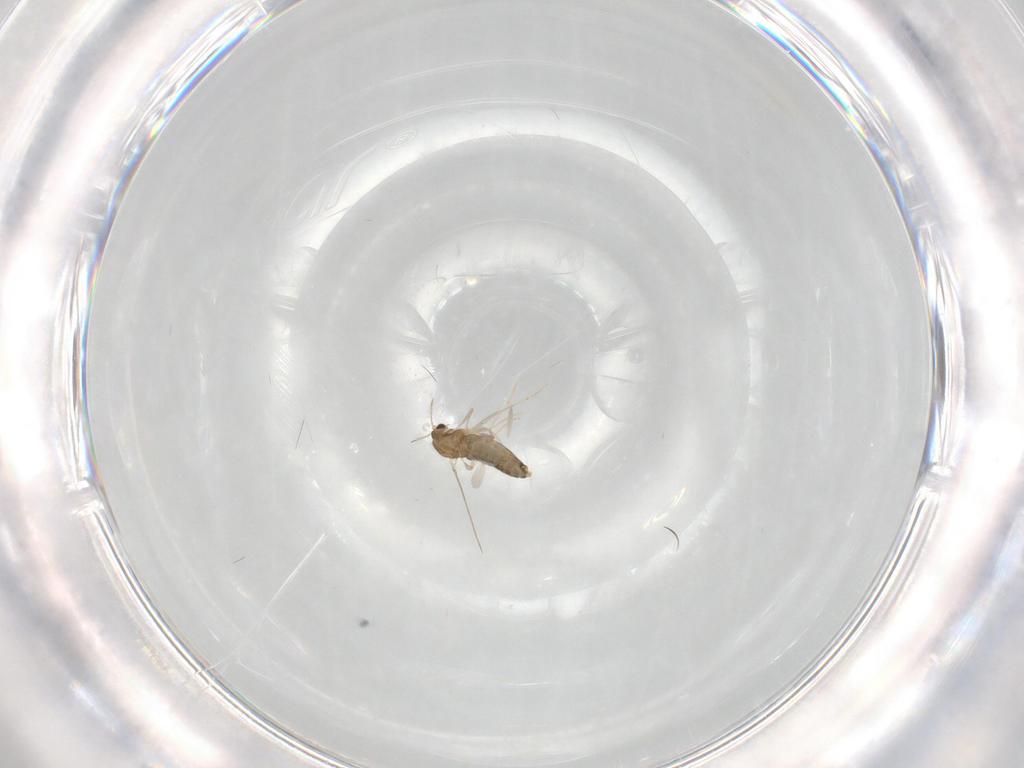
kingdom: Animalia
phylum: Arthropoda
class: Insecta
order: Diptera
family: Chironomidae
